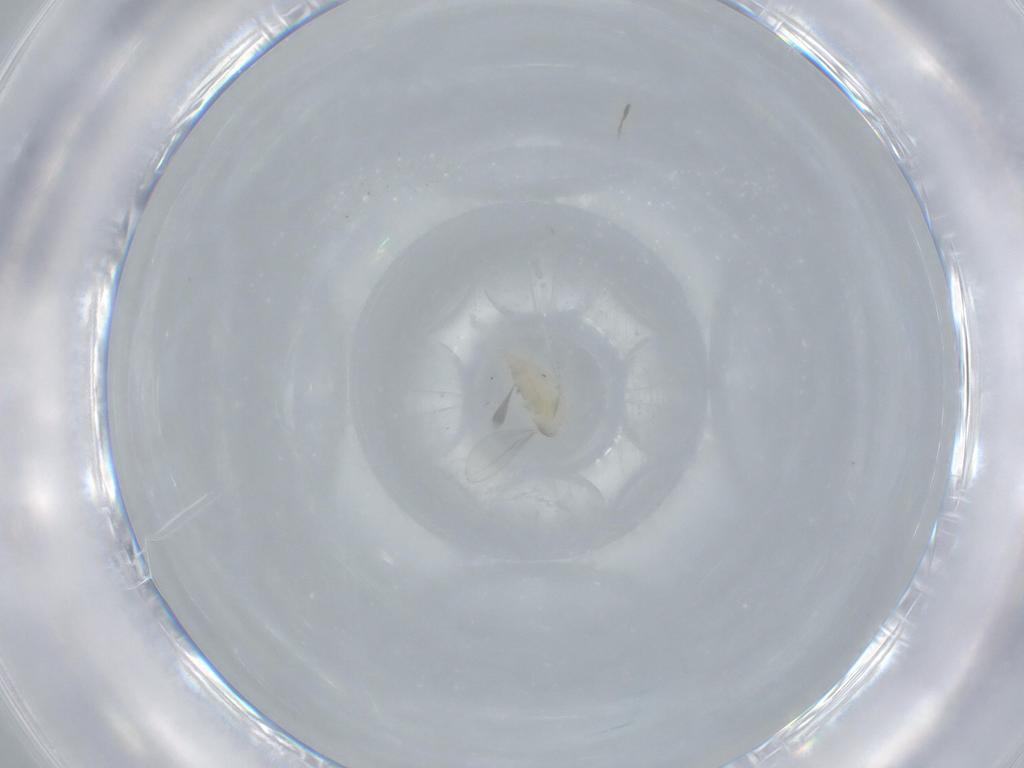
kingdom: Animalia
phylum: Arthropoda
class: Insecta
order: Diptera
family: Cecidomyiidae
